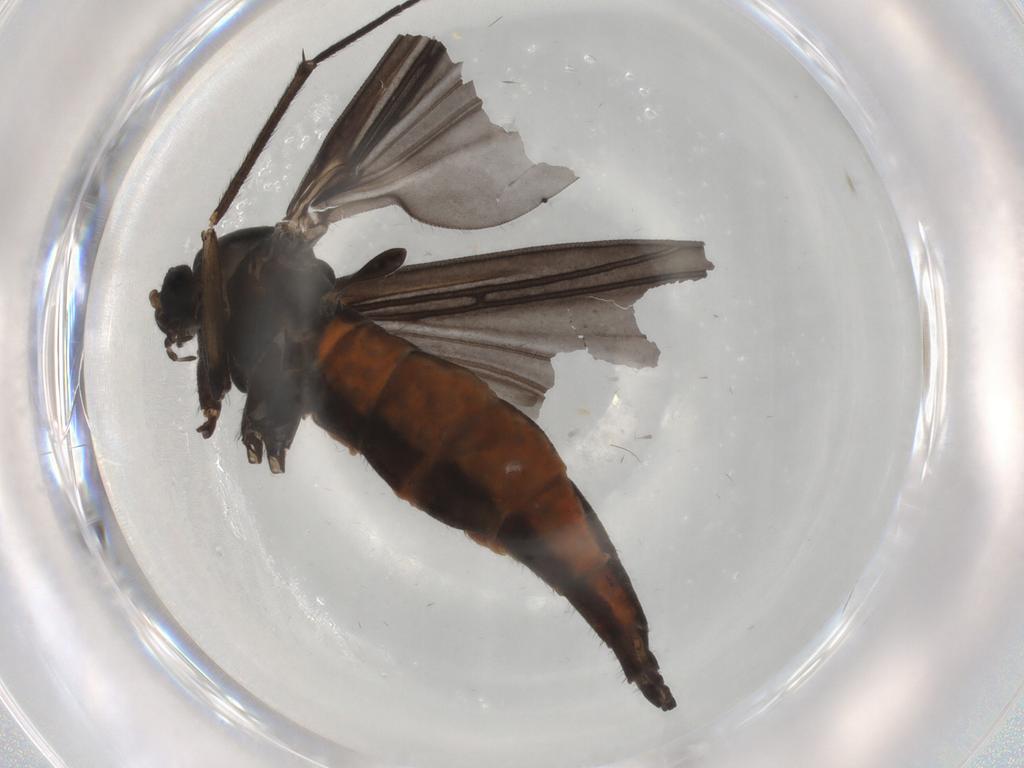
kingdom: Animalia
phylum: Arthropoda
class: Insecta
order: Diptera
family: Sciaridae
